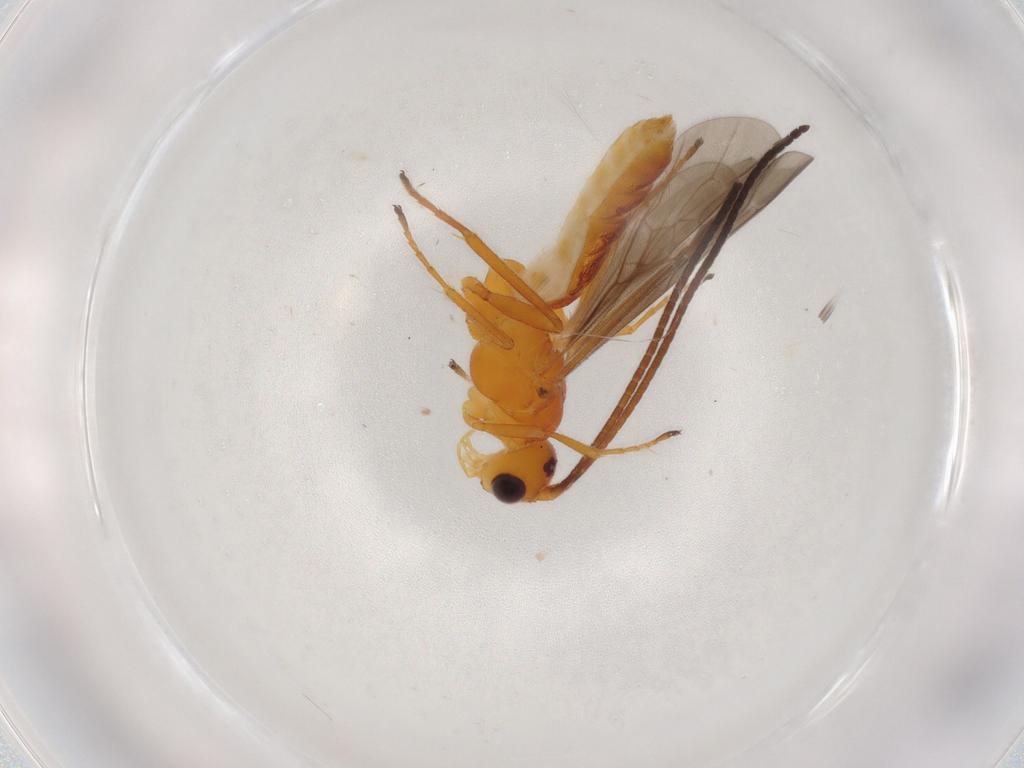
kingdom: Animalia
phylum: Arthropoda
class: Insecta
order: Hymenoptera
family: Braconidae
